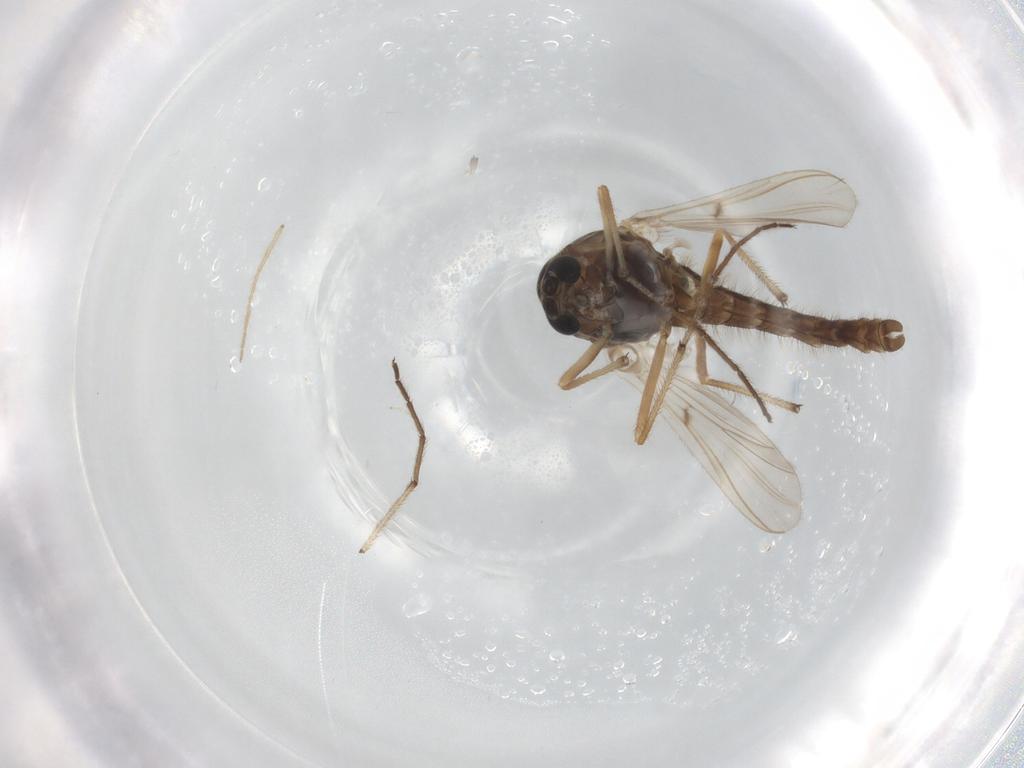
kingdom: Animalia
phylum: Arthropoda
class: Insecta
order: Diptera
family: Chironomidae
